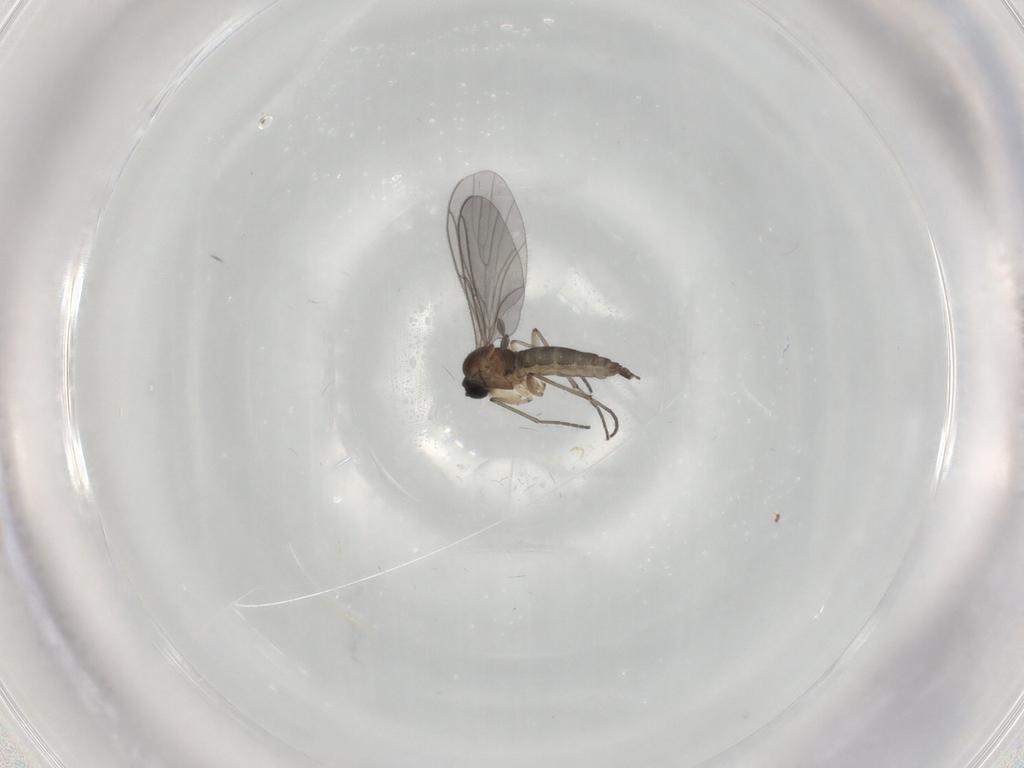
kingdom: Animalia
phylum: Arthropoda
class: Insecta
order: Diptera
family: Sciaridae
